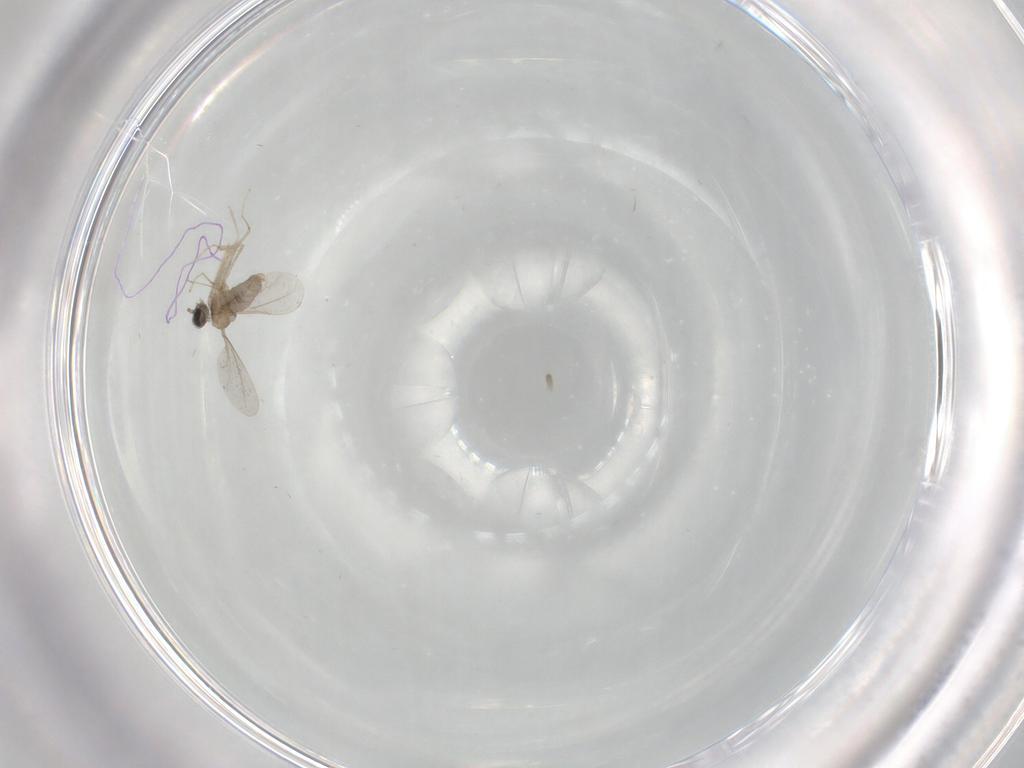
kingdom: Animalia
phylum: Arthropoda
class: Insecta
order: Diptera
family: Cecidomyiidae
